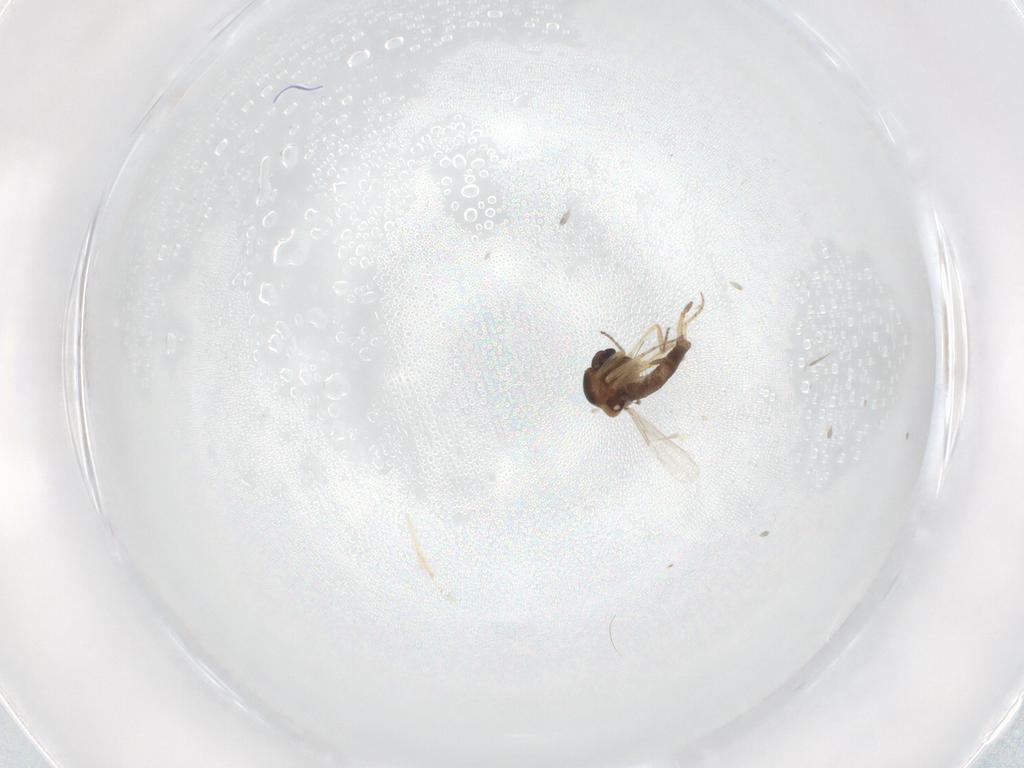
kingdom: Animalia
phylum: Arthropoda
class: Insecta
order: Diptera
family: Ceratopogonidae
